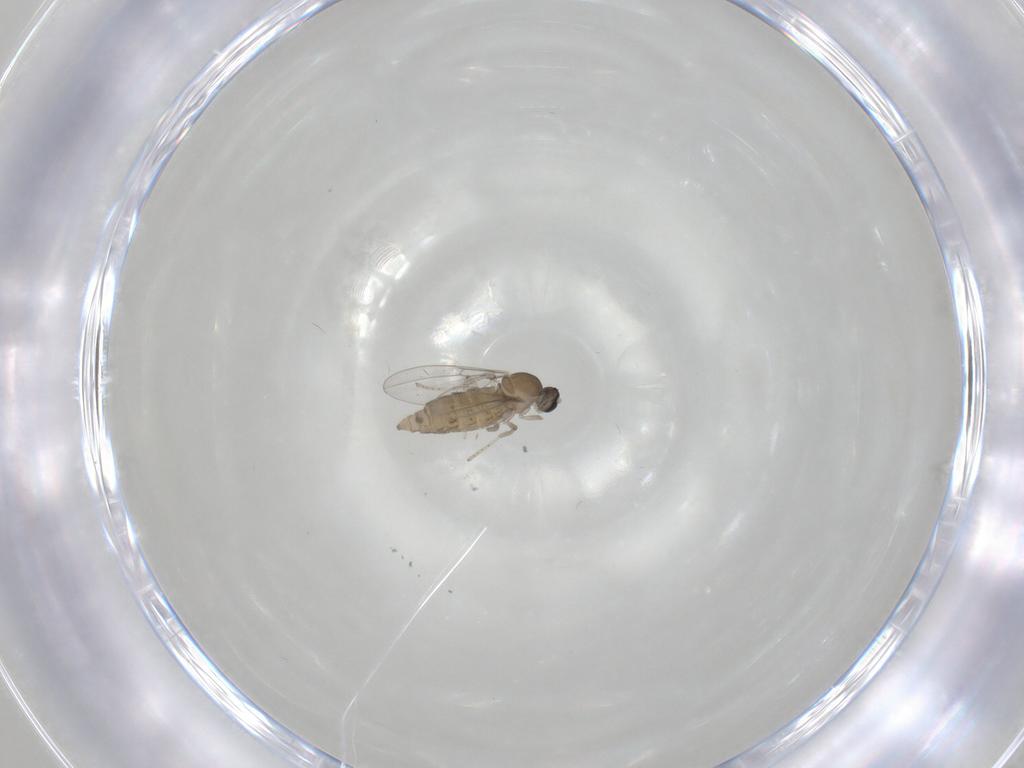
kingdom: Animalia
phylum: Arthropoda
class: Insecta
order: Diptera
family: Cecidomyiidae
